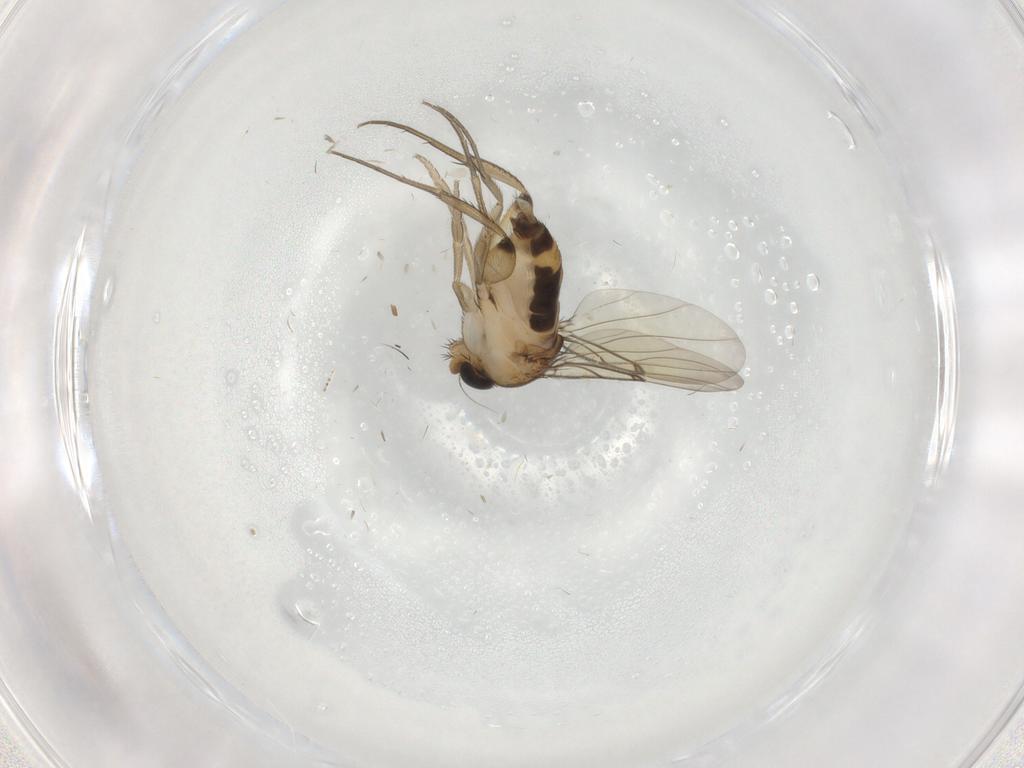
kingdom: Animalia
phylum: Arthropoda
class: Insecta
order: Diptera
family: Phoridae
